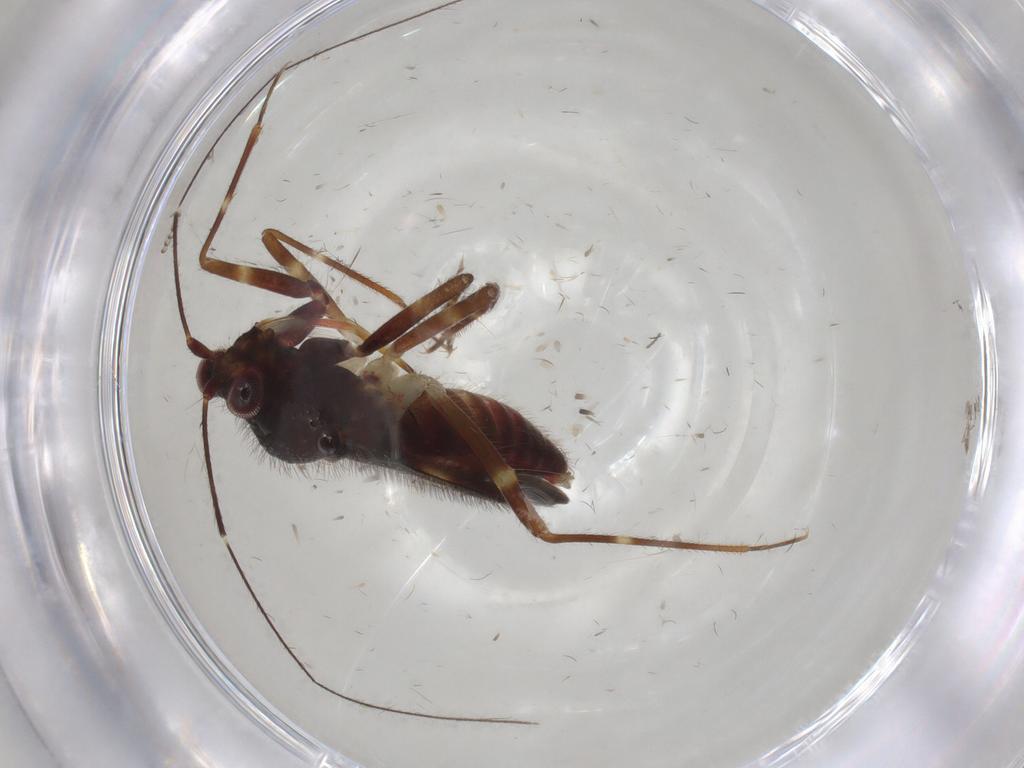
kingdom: Animalia
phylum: Arthropoda
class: Insecta
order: Hemiptera
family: Miridae
